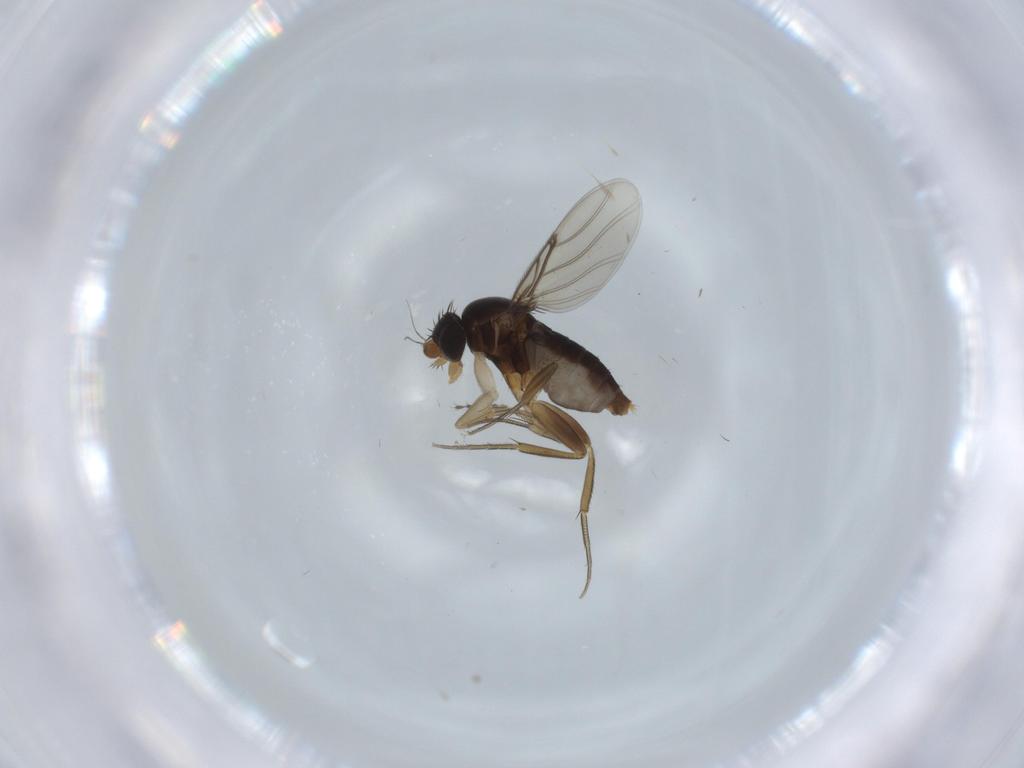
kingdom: Animalia
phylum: Arthropoda
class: Insecta
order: Diptera
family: Phoridae
